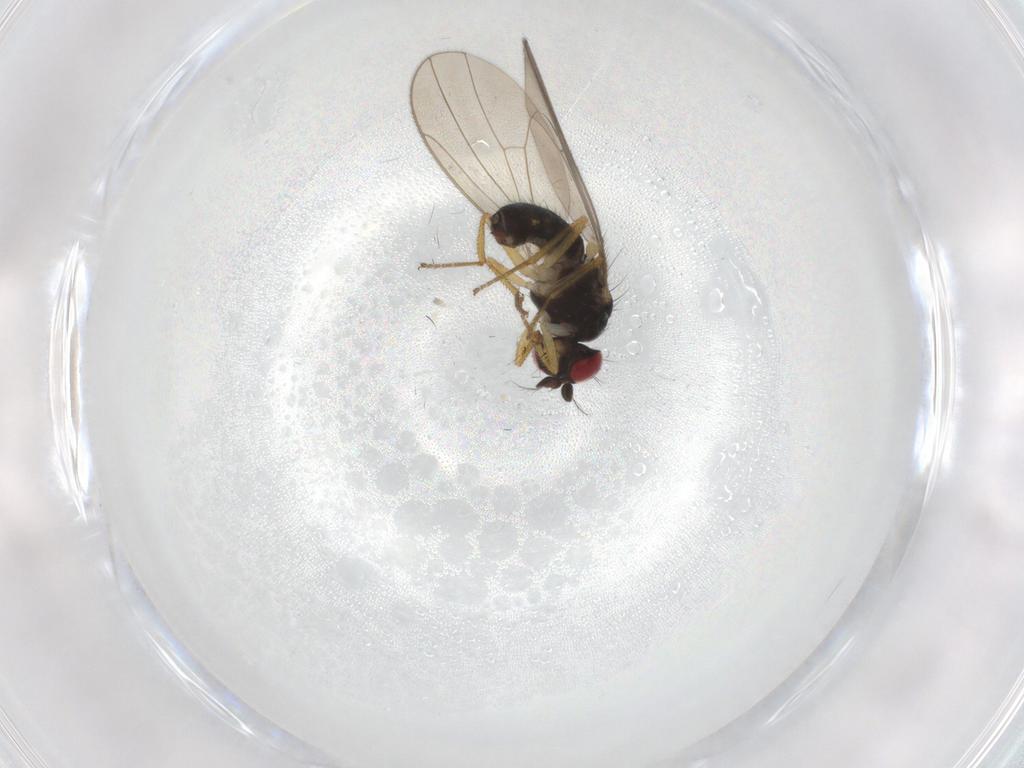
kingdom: Animalia
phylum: Arthropoda
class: Insecta
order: Diptera
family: Drosophilidae
